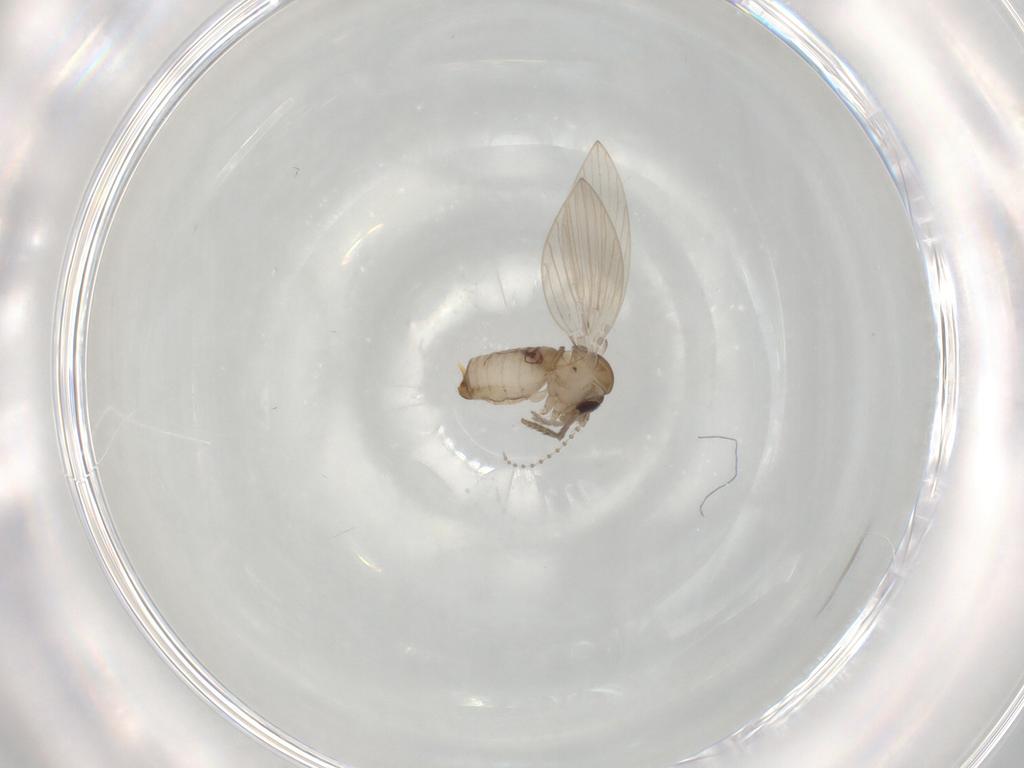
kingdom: Animalia
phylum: Arthropoda
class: Insecta
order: Diptera
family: Psychodidae
